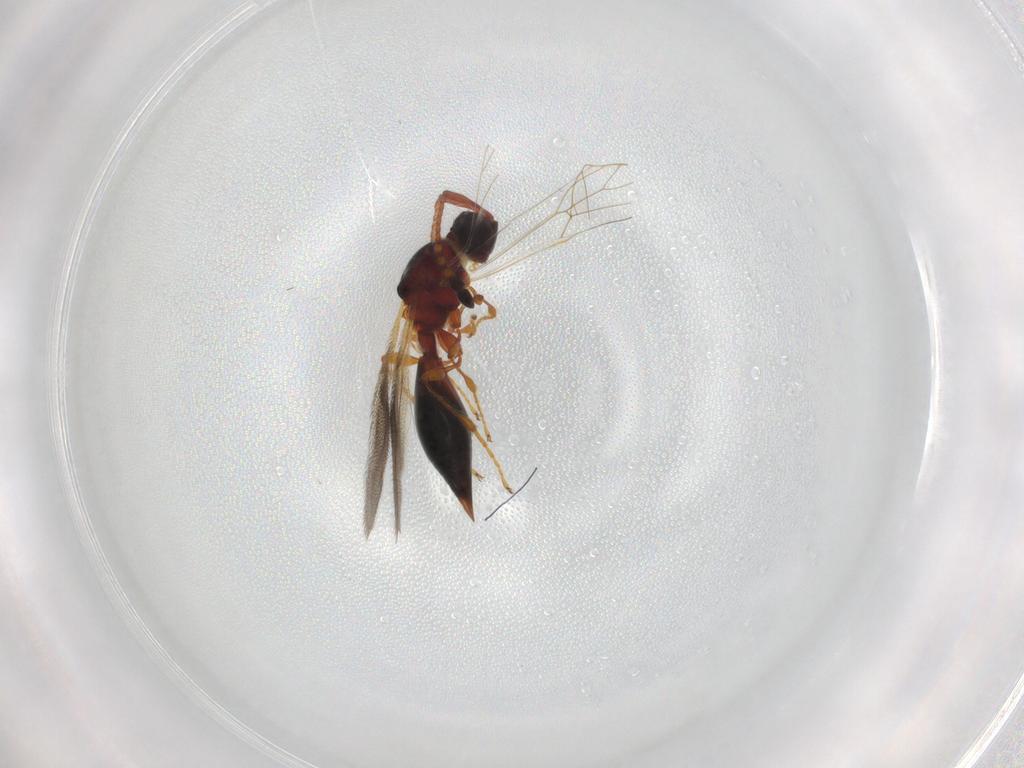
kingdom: Animalia
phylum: Arthropoda
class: Insecta
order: Hymenoptera
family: Diapriidae
